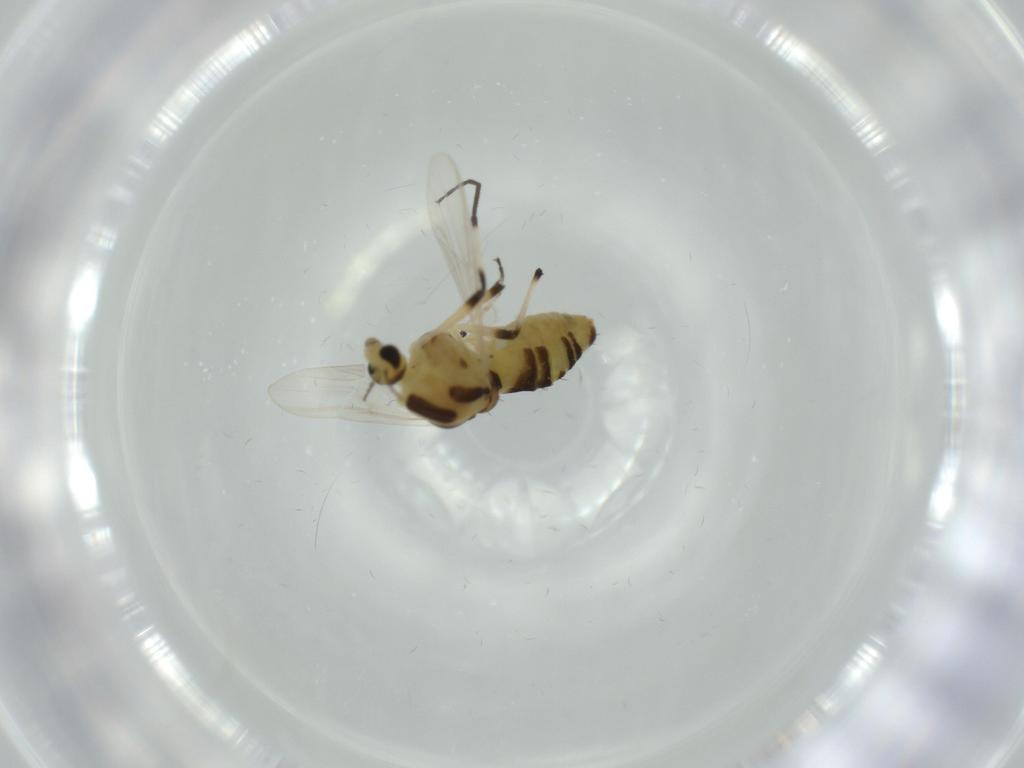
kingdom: Animalia
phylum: Arthropoda
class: Insecta
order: Diptera
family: Chironomidae
